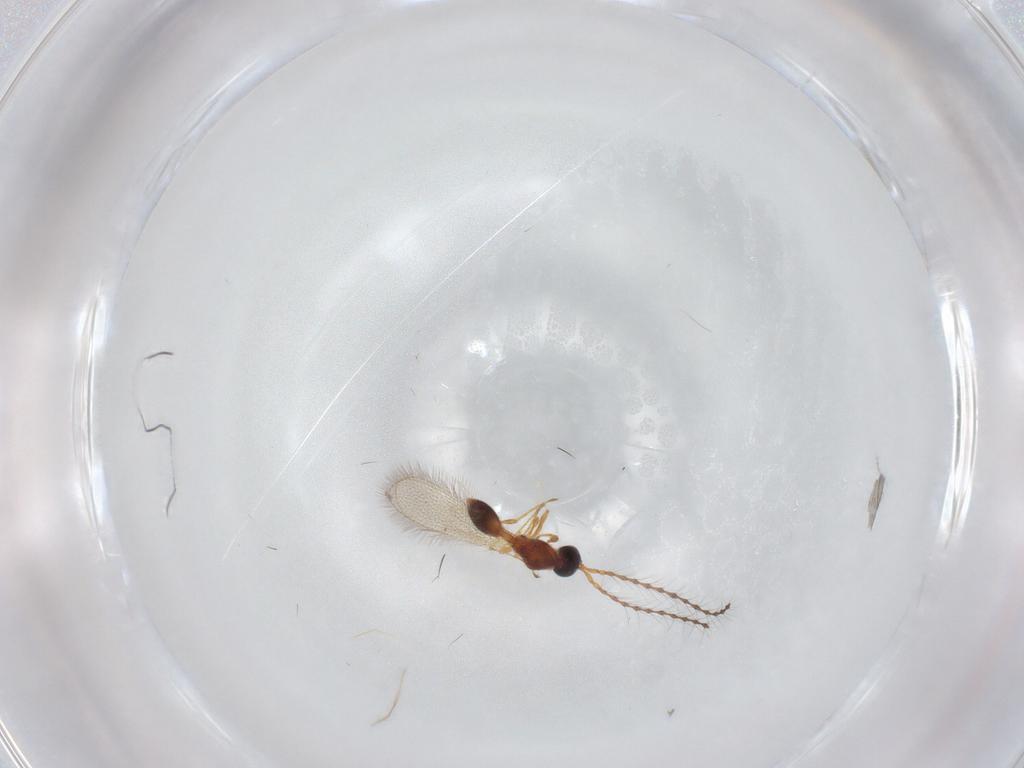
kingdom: Animalia
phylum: Arthropoda
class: Insecta
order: Hymenoptera
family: Diapriidae
